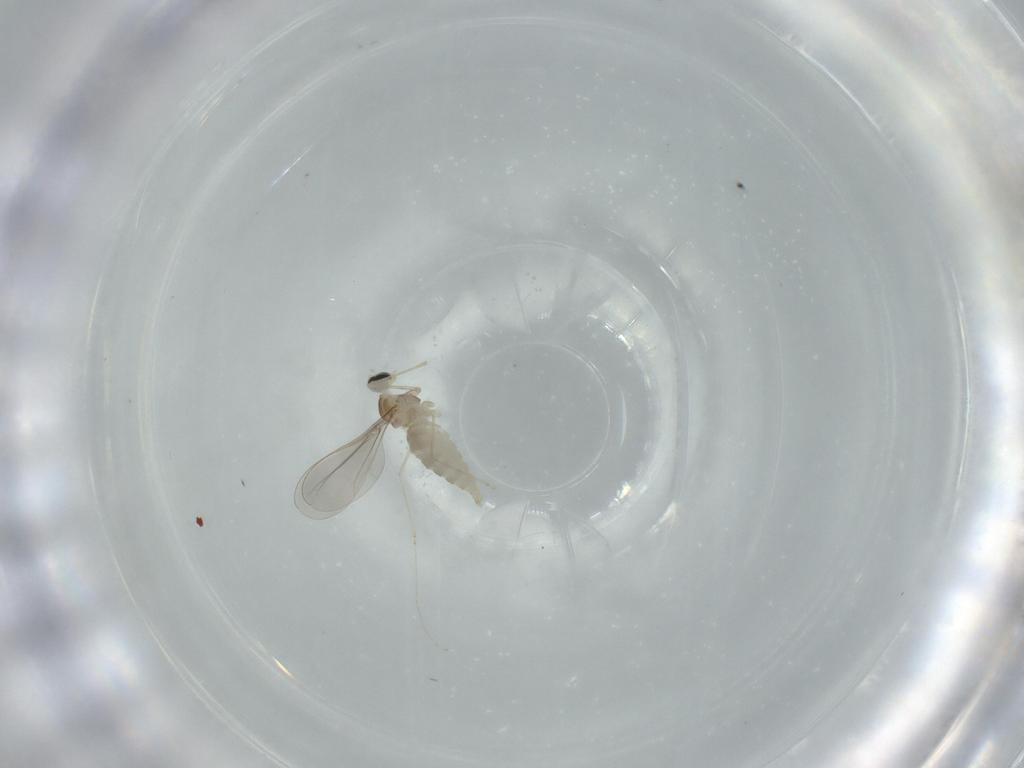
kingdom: Animalia
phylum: Arthropoda
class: Insecta
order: Diptera
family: Cecidomyiidae
